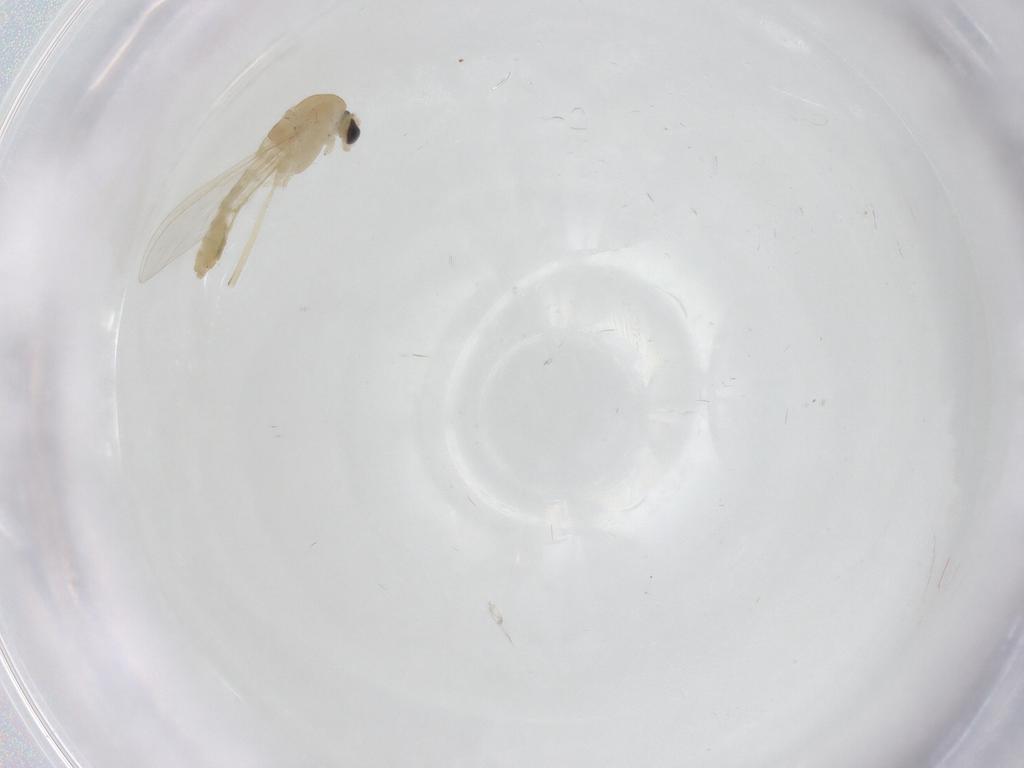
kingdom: Animalia
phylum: Arthropoda
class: Insecta
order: Diptera
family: Chironomidae
